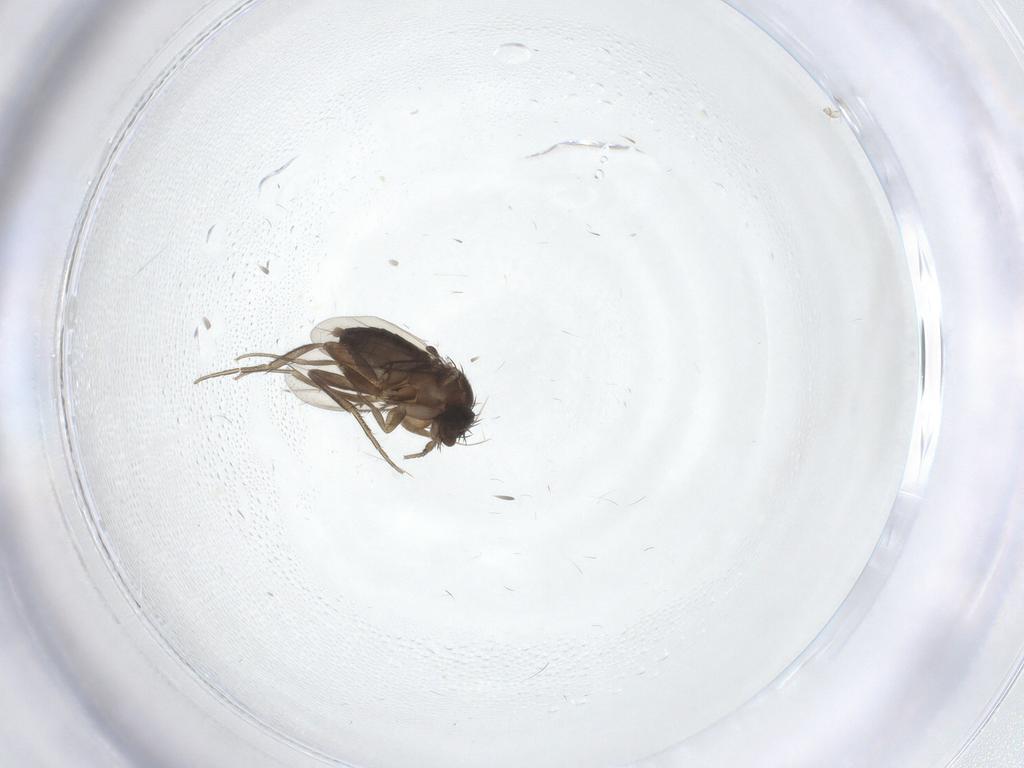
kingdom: Animalia
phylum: Arthropoda
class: Insecta
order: Diptera
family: Phoridae
